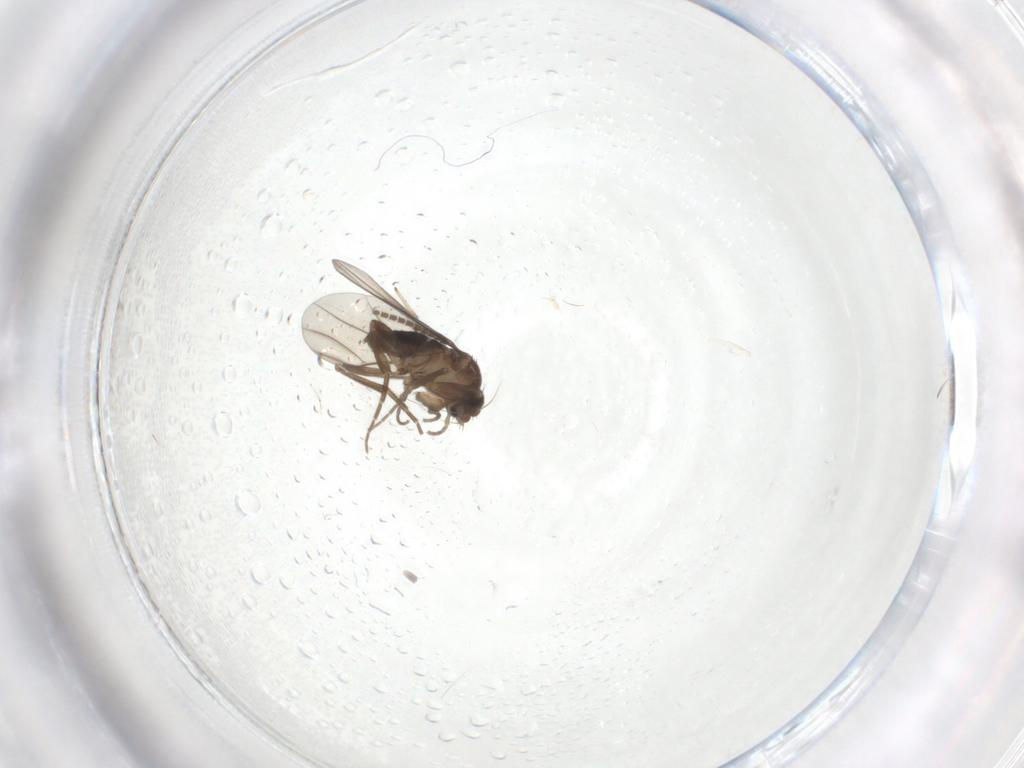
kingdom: Animalia
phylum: Arthropoda
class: Insecta
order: Diptera
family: Phoridae
